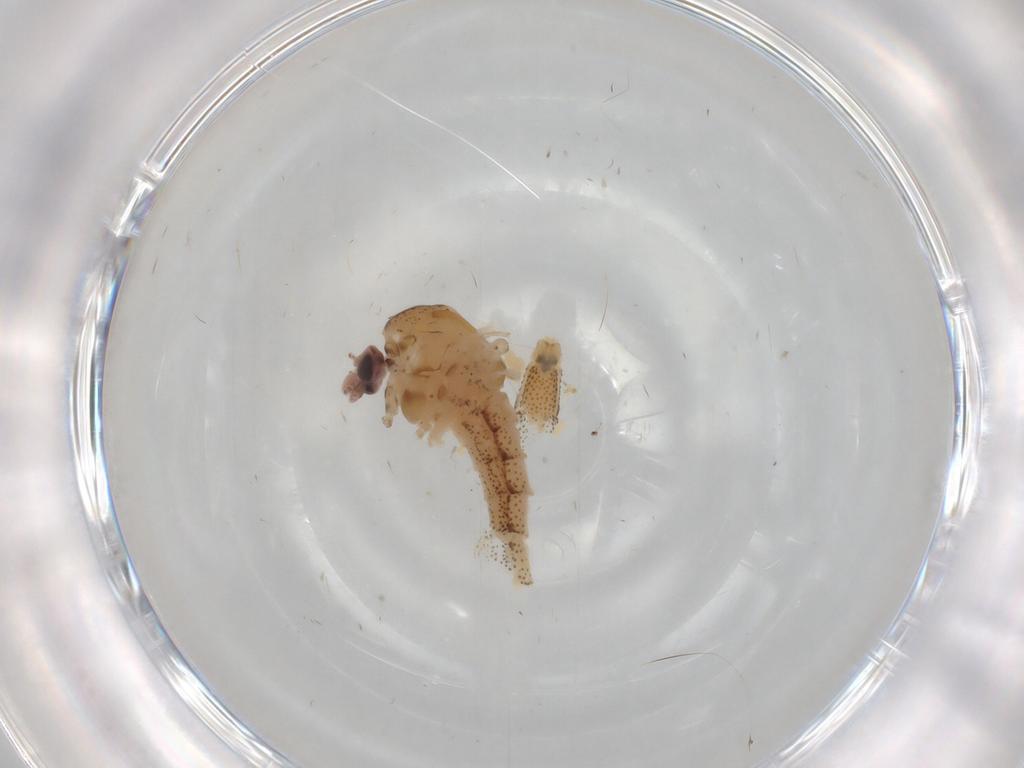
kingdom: Animalia
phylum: Arthropoda
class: Insecta
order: Diptera
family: Chaoboridae
